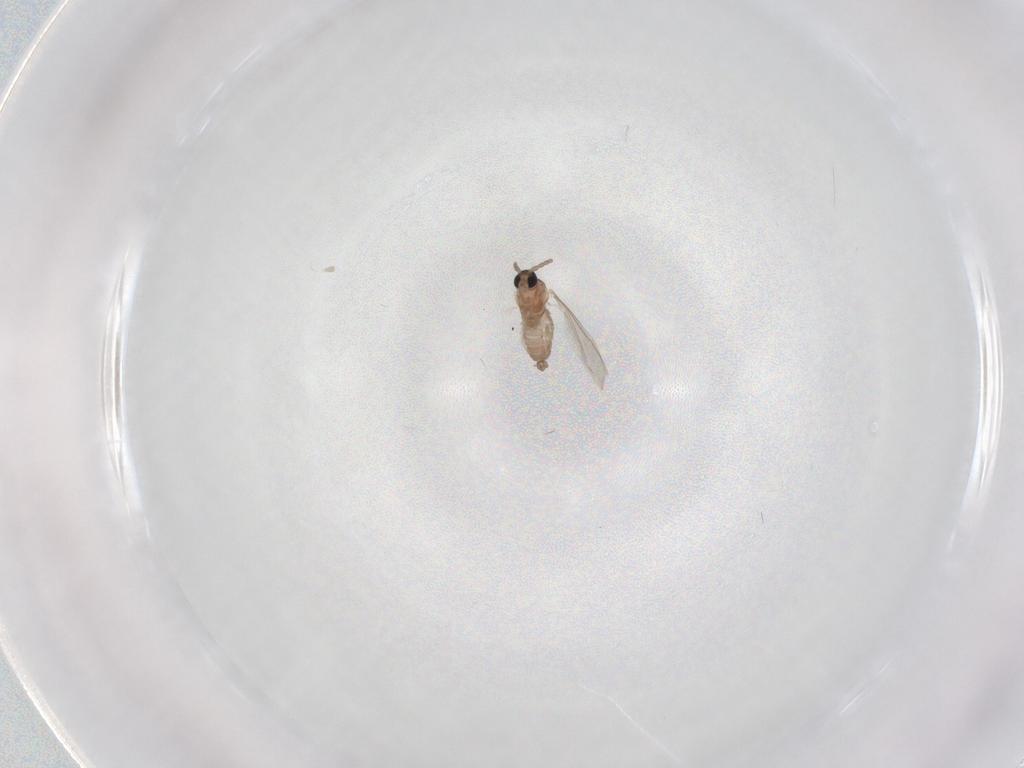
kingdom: Animalia
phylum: Arthropoda
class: Insecta
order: Diptera
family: Cecidomyiidae
